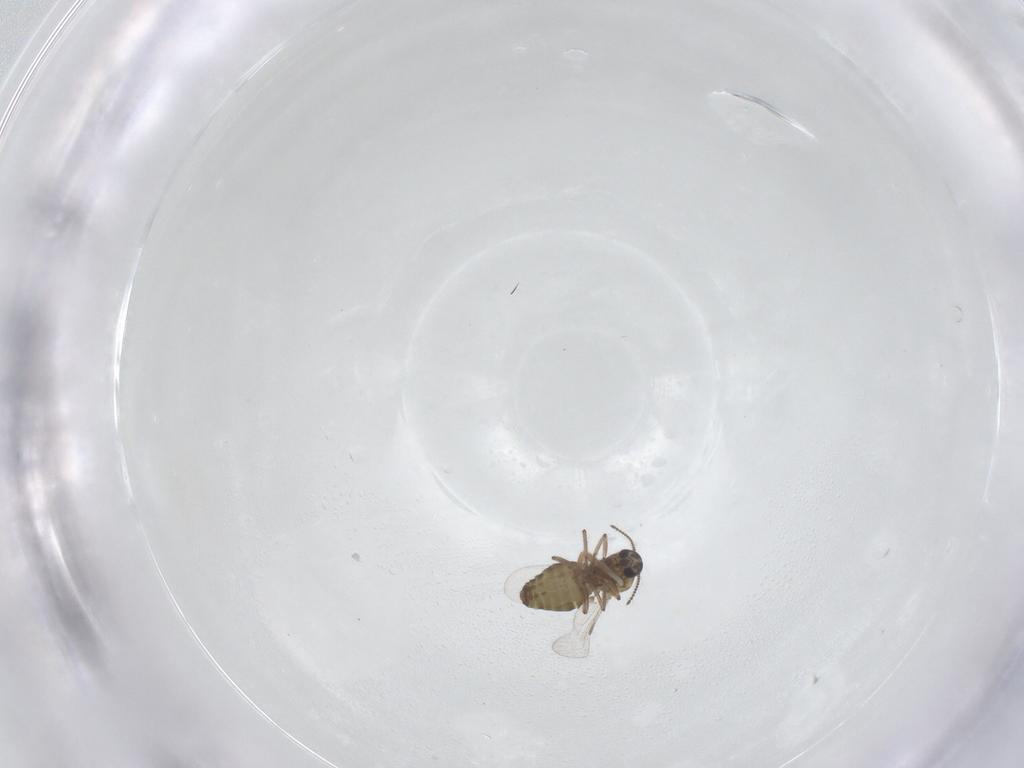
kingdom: Animalia
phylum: Arthropoda
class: Insecta
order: Diptera
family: Ceratopogonidae
